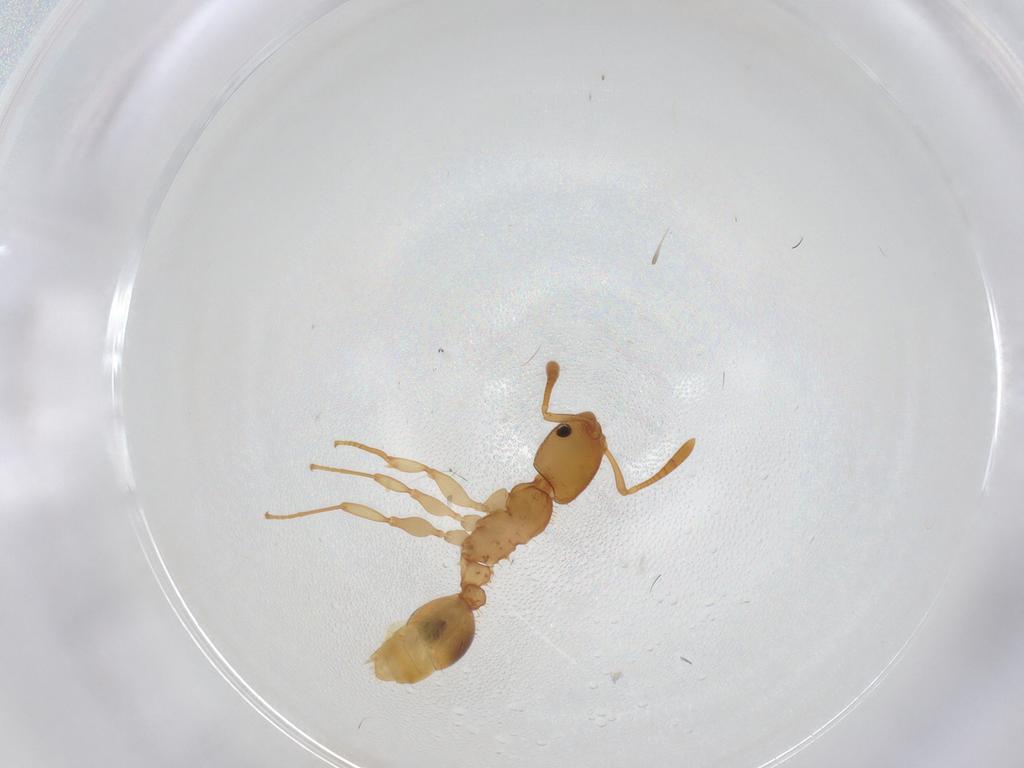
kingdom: Animalia
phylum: Arthropoda
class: Insecta
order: Hymenoptera
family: Formicidae
